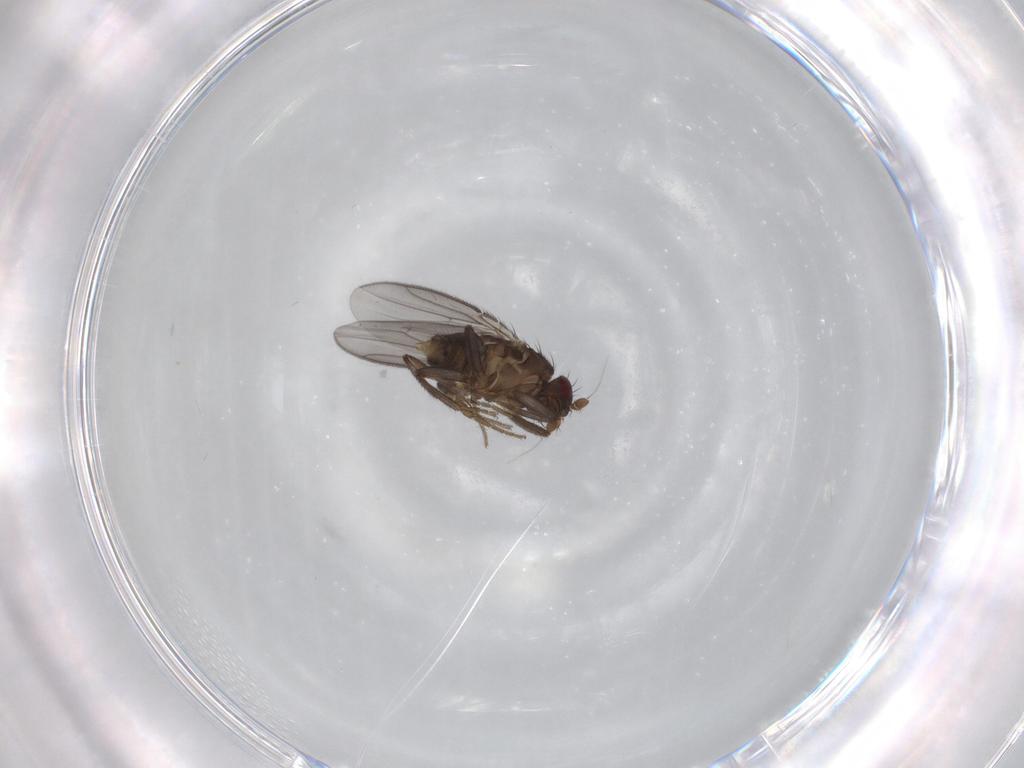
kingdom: Animalia
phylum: Arthropoda
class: Insecta
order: Diptera
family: Sphaeroceridae
